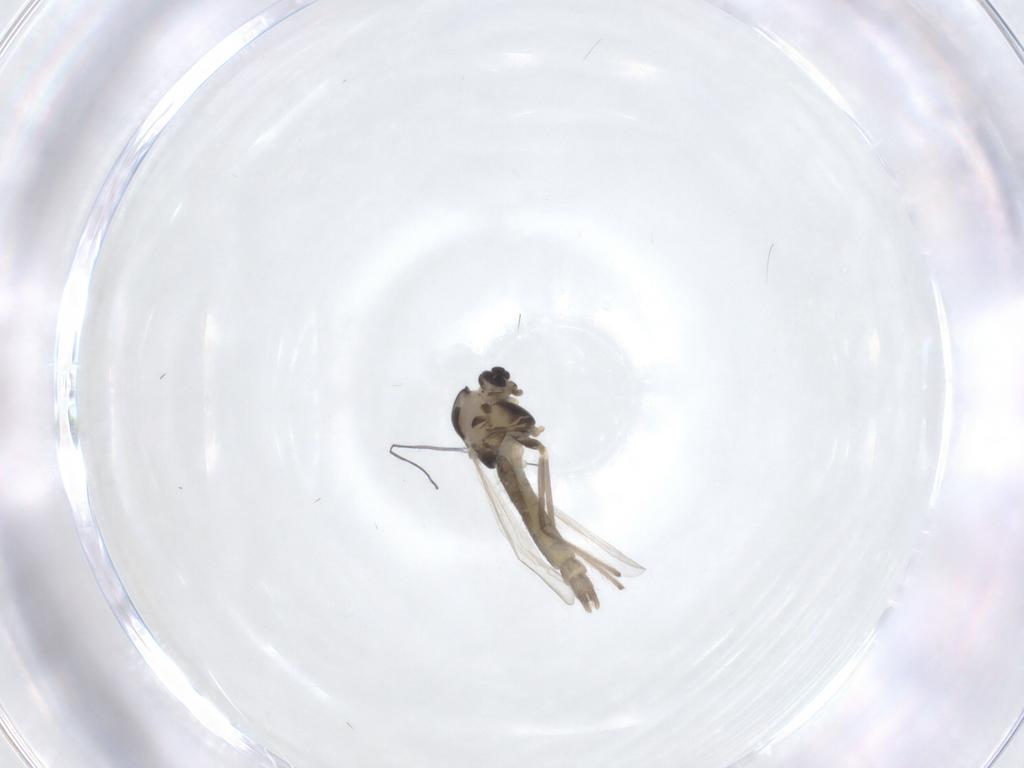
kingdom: Animalia
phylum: Arthropoda
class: Insecta
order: Diptera
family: Chironomidae
